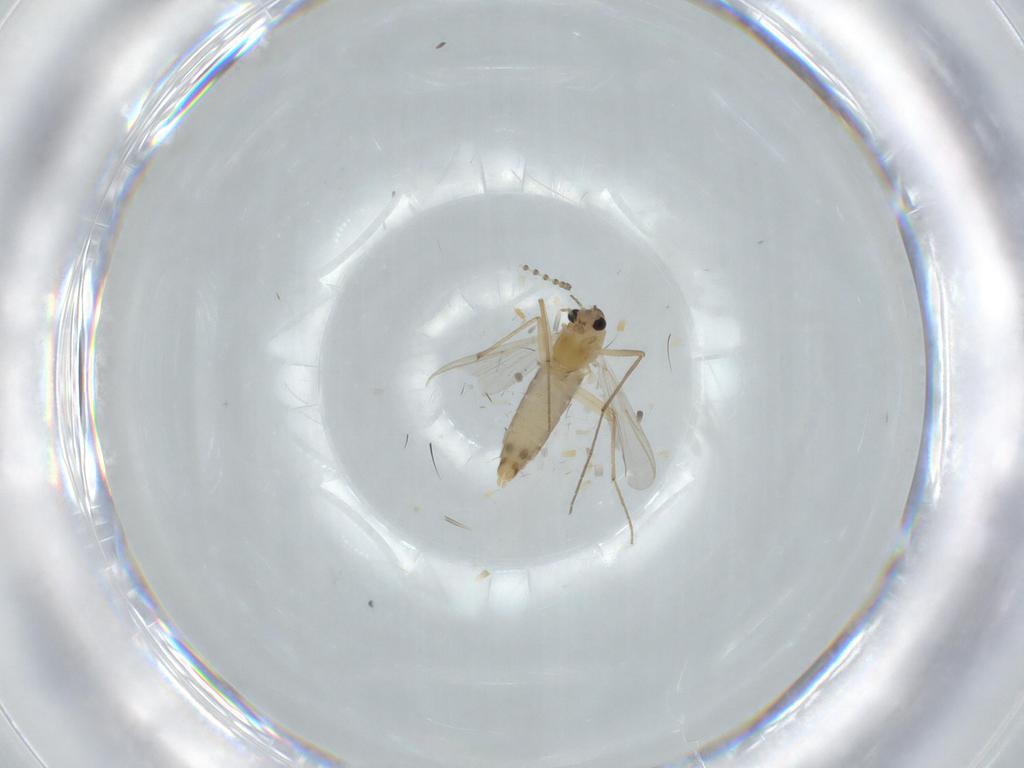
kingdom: Animalia
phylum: Arthropoda
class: Insecta
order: Diptera
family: Chironomidae
